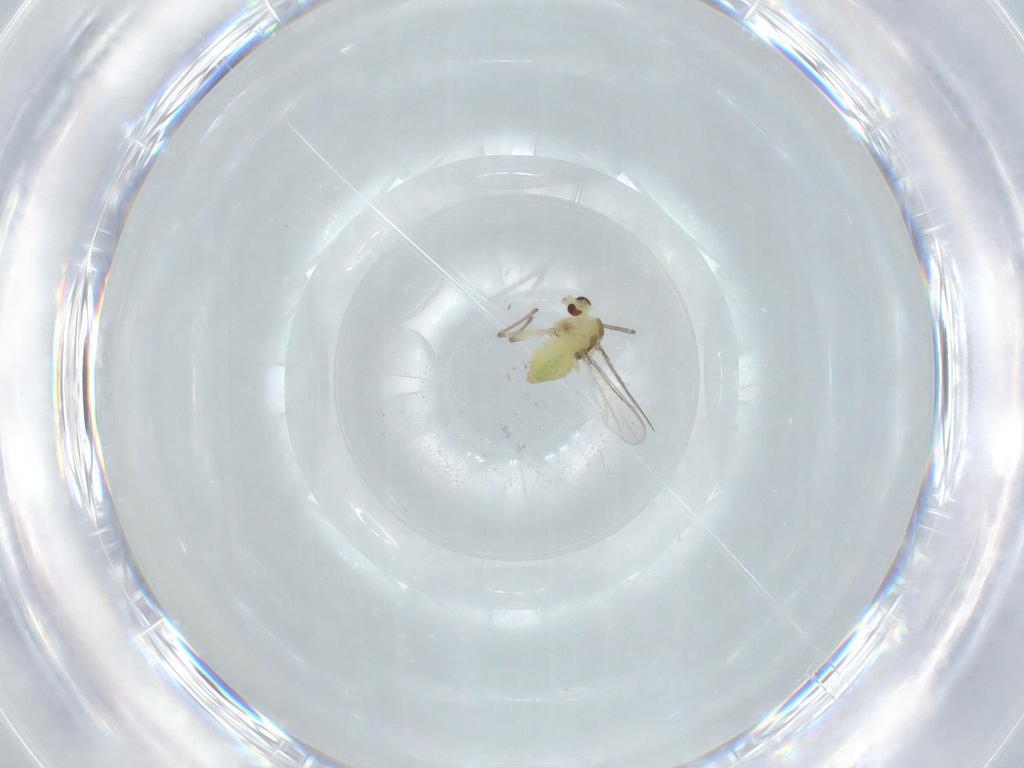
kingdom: Animalia
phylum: Arthropoda
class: Insecta
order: Diptera
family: Chironomidae
